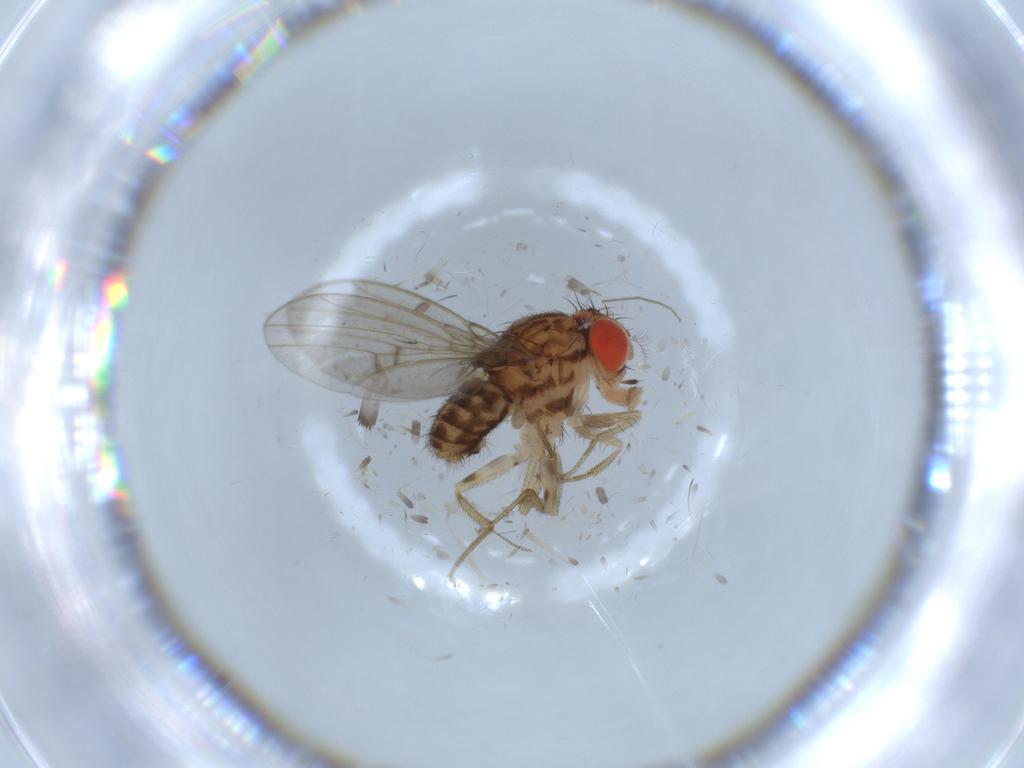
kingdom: Animalia
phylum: Arthropoda
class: Insecta
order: Diptera
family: Drosophilidae
